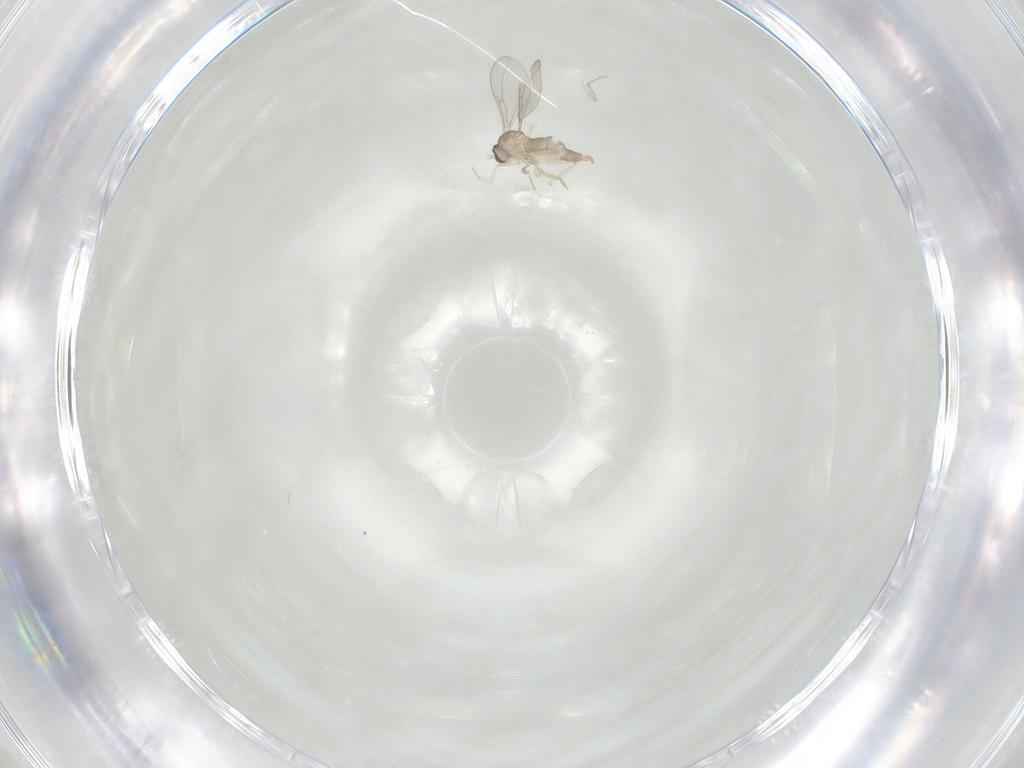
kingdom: Animalia
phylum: Arthropoda
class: Insecta
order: Diptera
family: Cecidomyiidae
